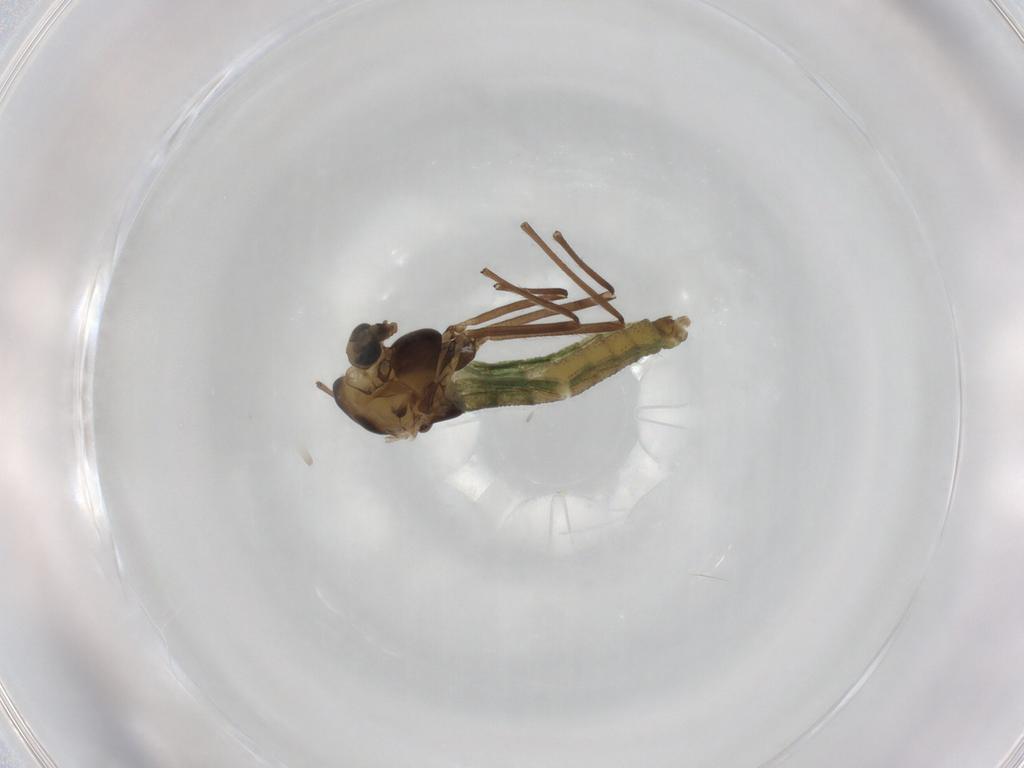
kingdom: Animalia
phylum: Arthropoda
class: Insecta
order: Diptera
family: Chironomidae
